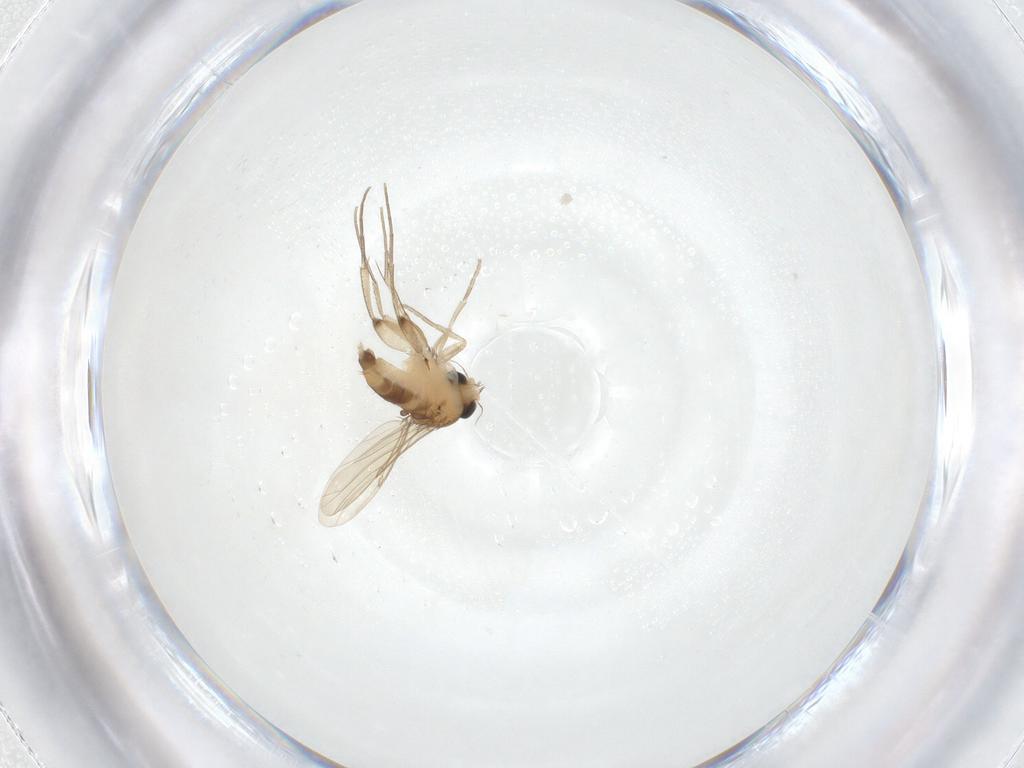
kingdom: Animalia
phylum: Arthropoda
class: Insecta
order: Diptera
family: Phoridae
